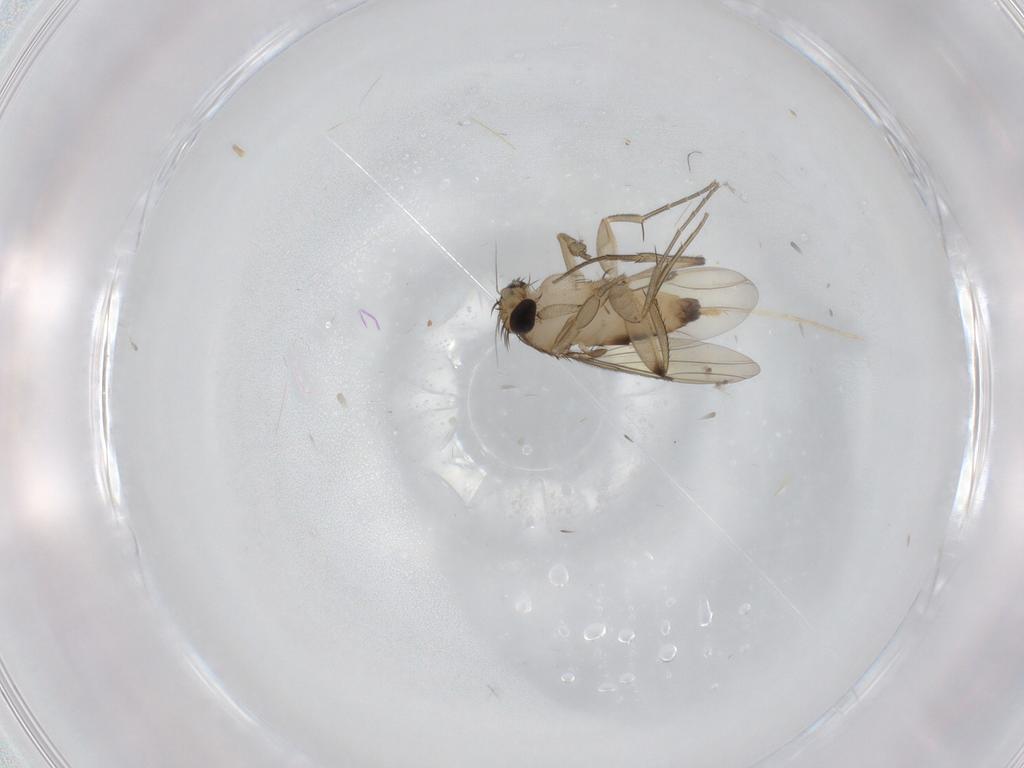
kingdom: Animalia
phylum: Arthropoda
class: Insecta
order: Diptera
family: Phoridae
